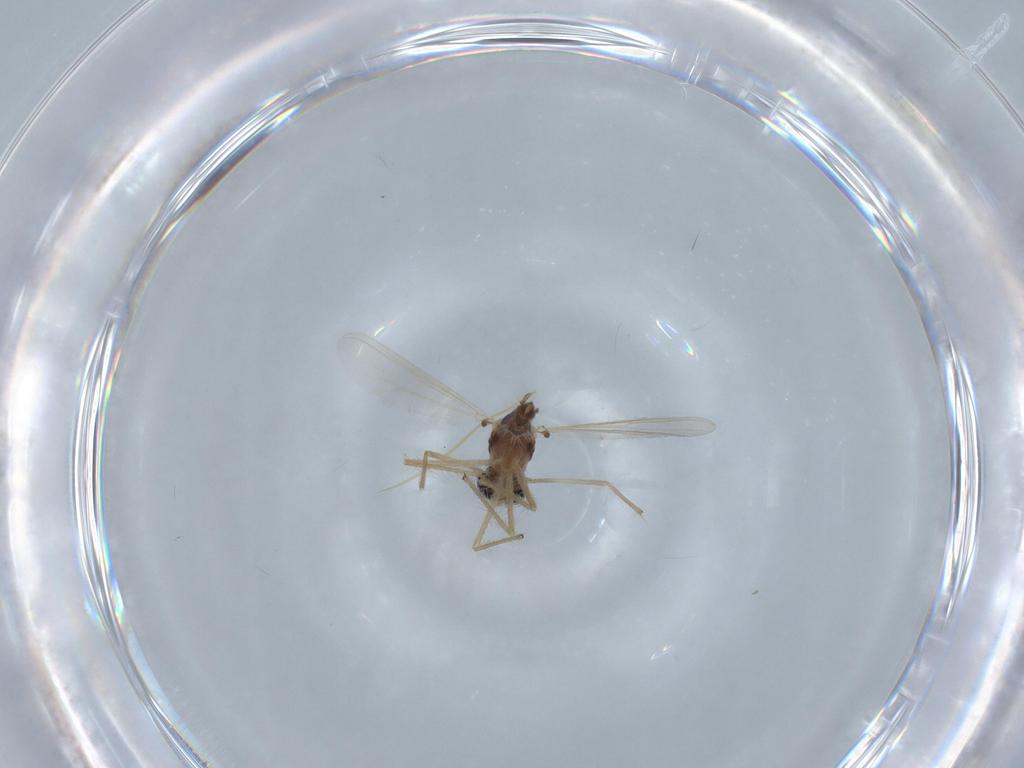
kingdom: Animalia
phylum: Arthropoda
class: Insecta
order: Diptera
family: Chironomidae
